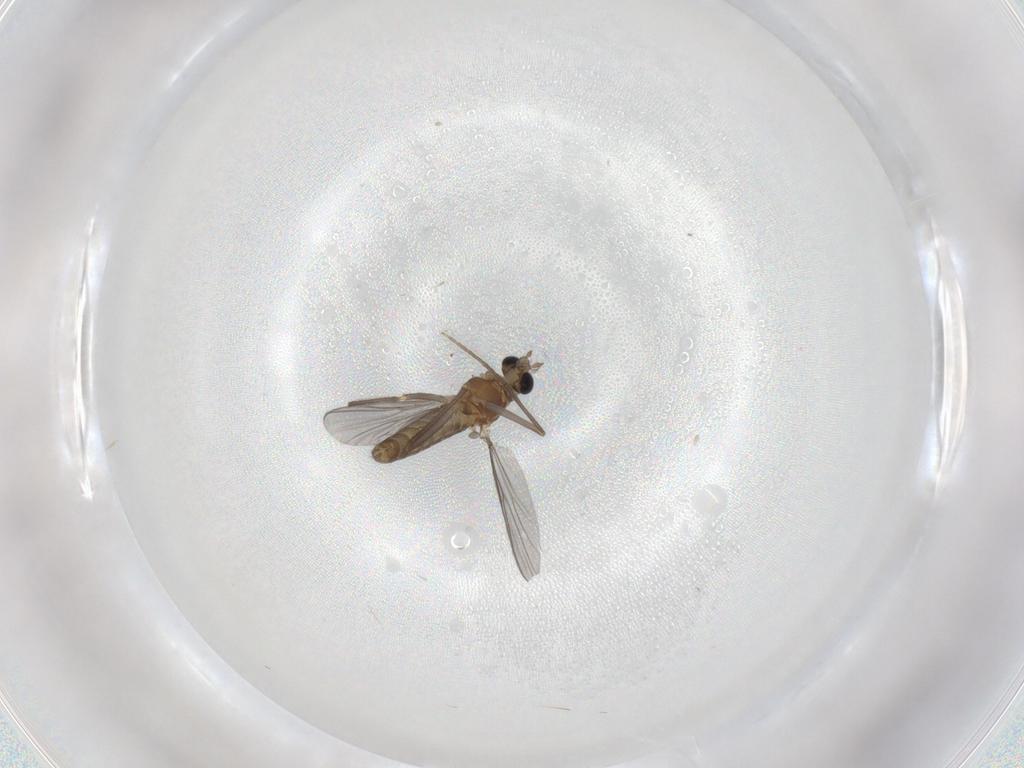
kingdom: Animalia
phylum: Arthropoda
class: Insecta
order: Diptera
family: Chironomidae
